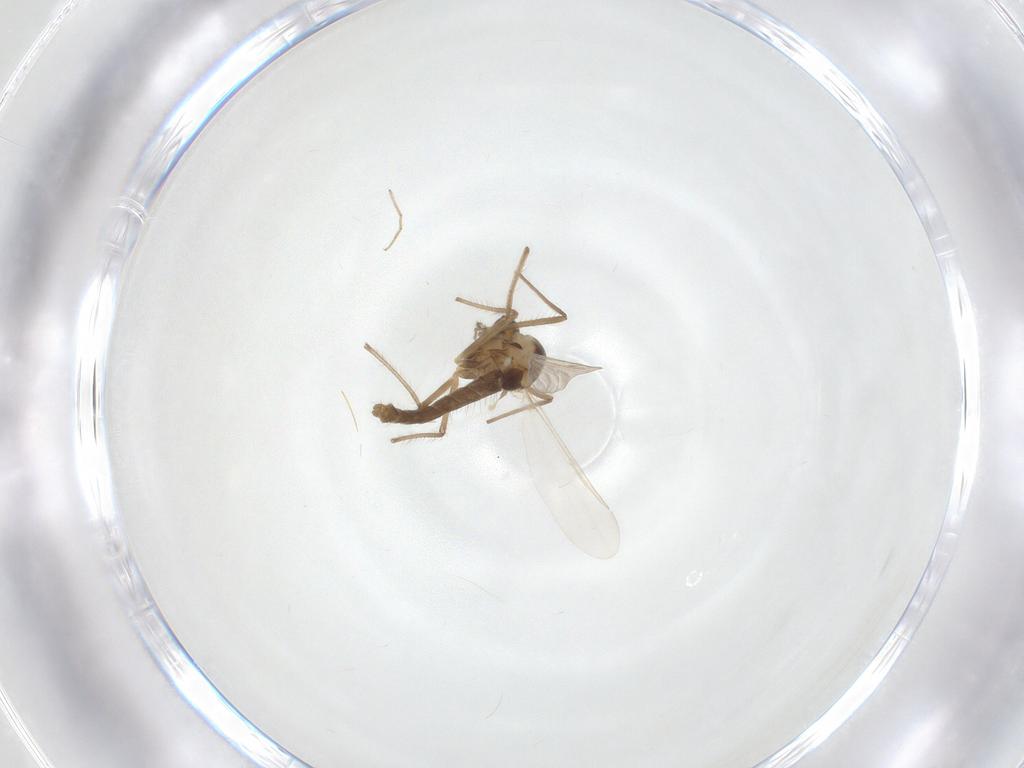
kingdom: Animalia
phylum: Arthropoda
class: Insecta
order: Diptera
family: Chironomidae
